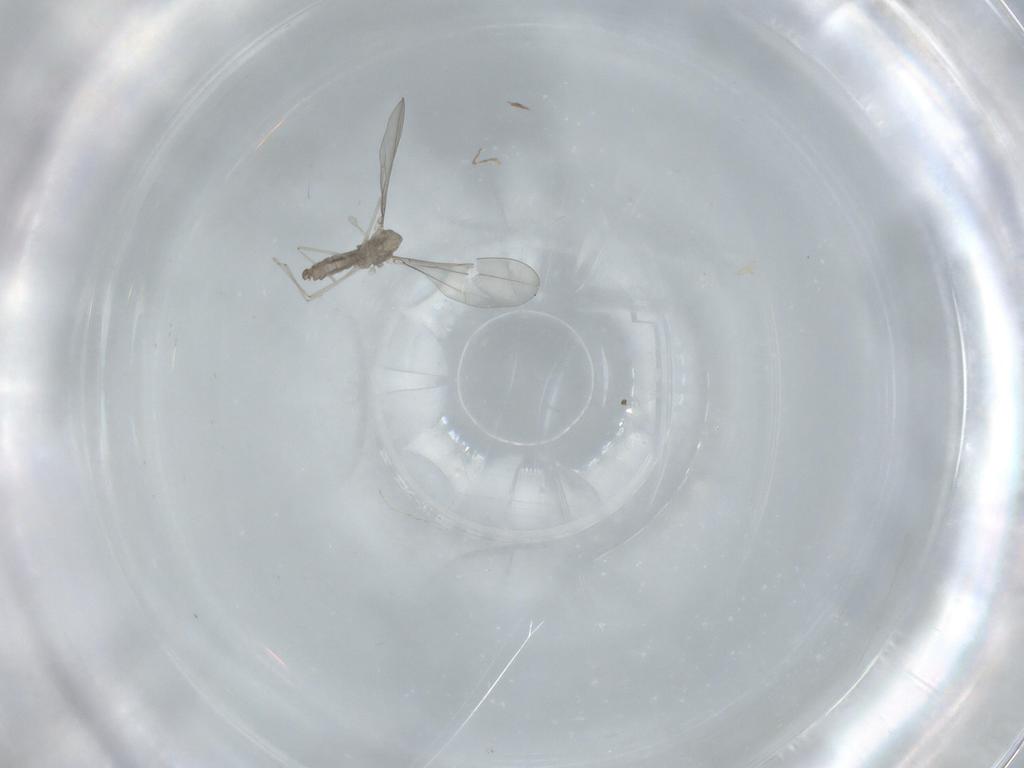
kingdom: Animalia
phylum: Arthropoda
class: Insecta
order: Diptera
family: Cecidomyiidae
